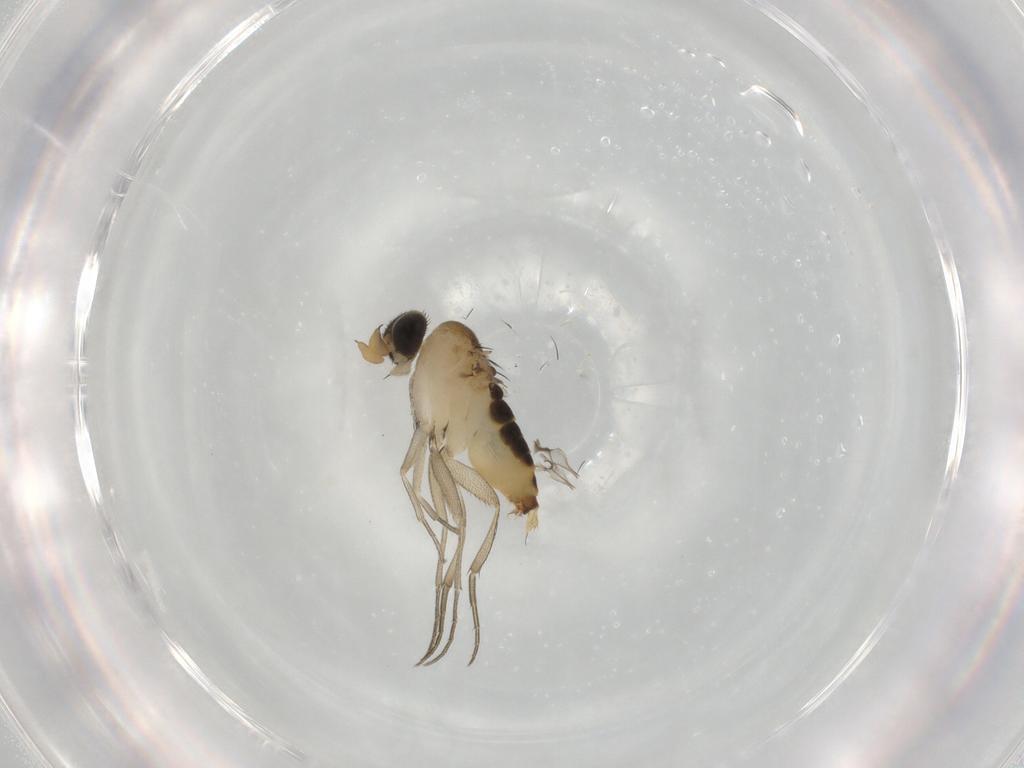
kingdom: Animalia
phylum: Arthropoda
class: Insecta
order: Diptera
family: Phoridae
